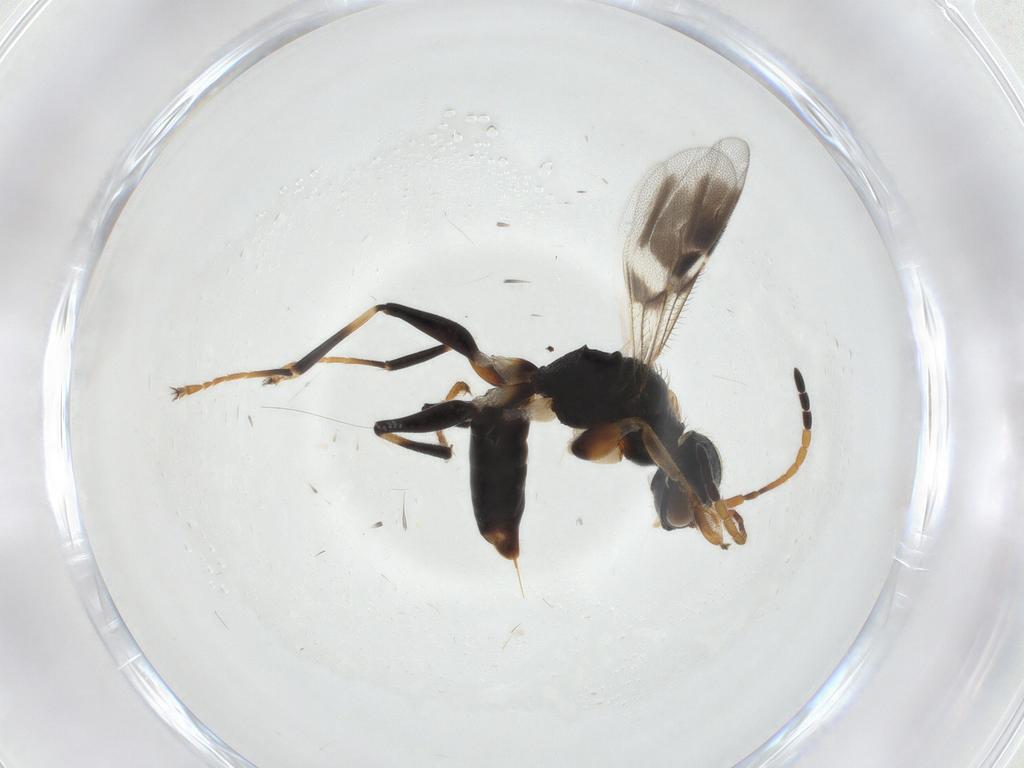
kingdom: Animalia
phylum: Arthropoda
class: Insecta
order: Hymenoptera
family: Dryinidae
